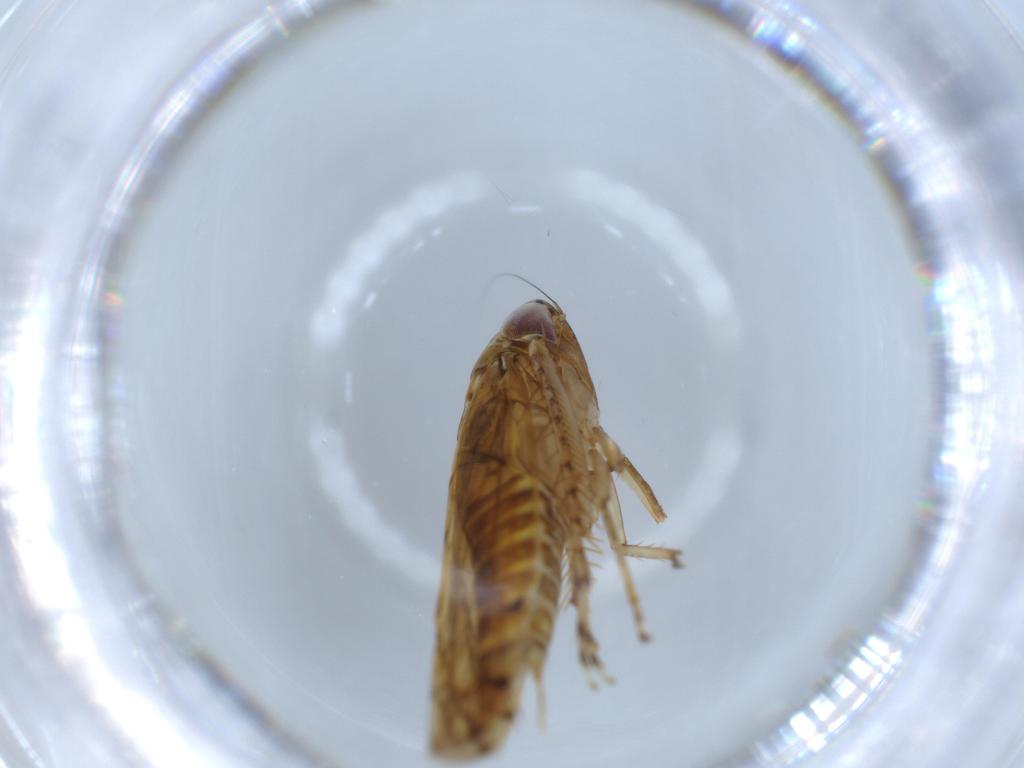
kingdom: Animalia
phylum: Arthropoda
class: Insecta
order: Hemiptera
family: Cicadellidae
